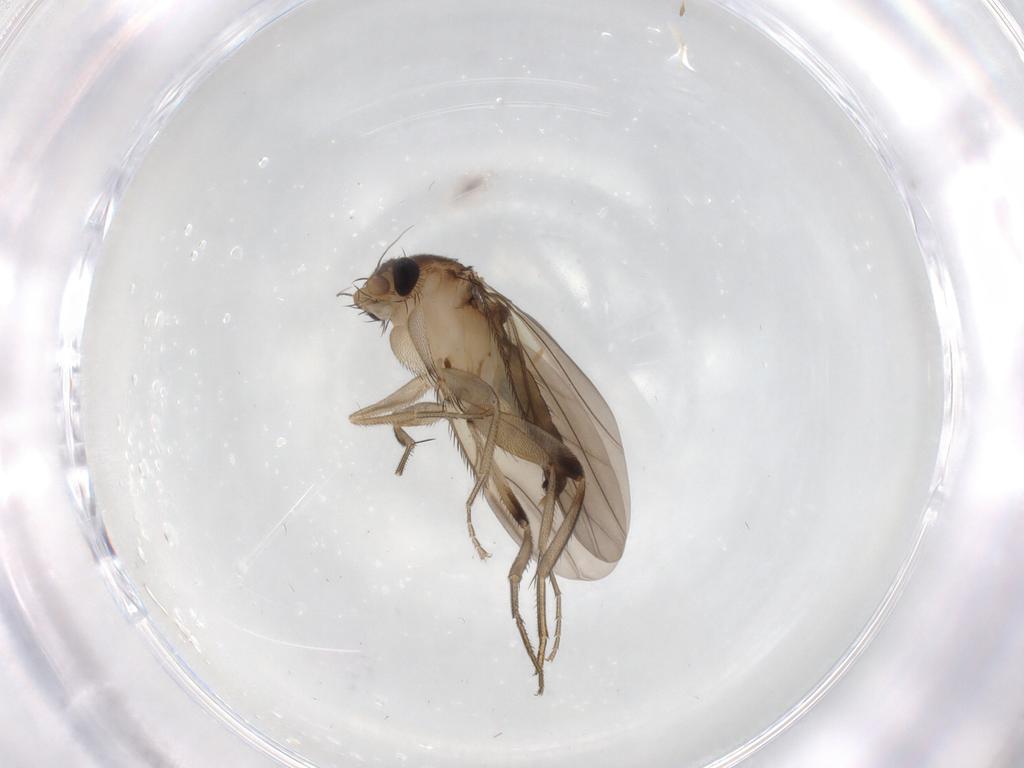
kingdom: Animalia
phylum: Arthropoda
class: Insecta
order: Diptera
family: Phoridae
